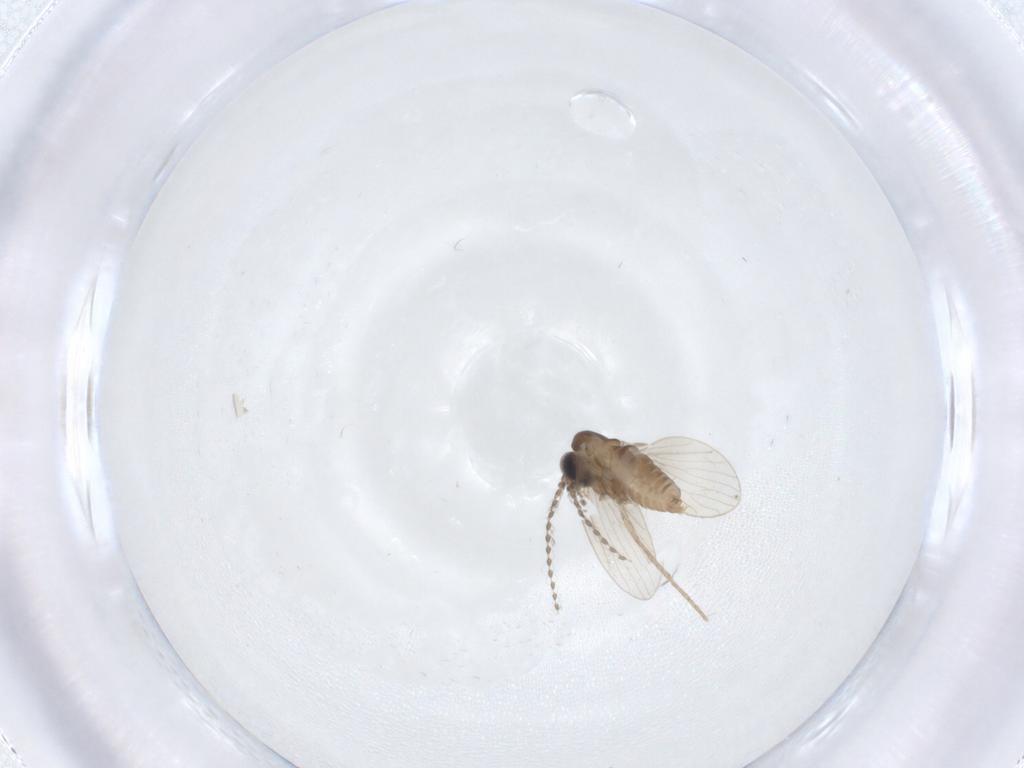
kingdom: Animalia
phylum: Arthropoda
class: Insecta
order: Diptera
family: Psychodidae
